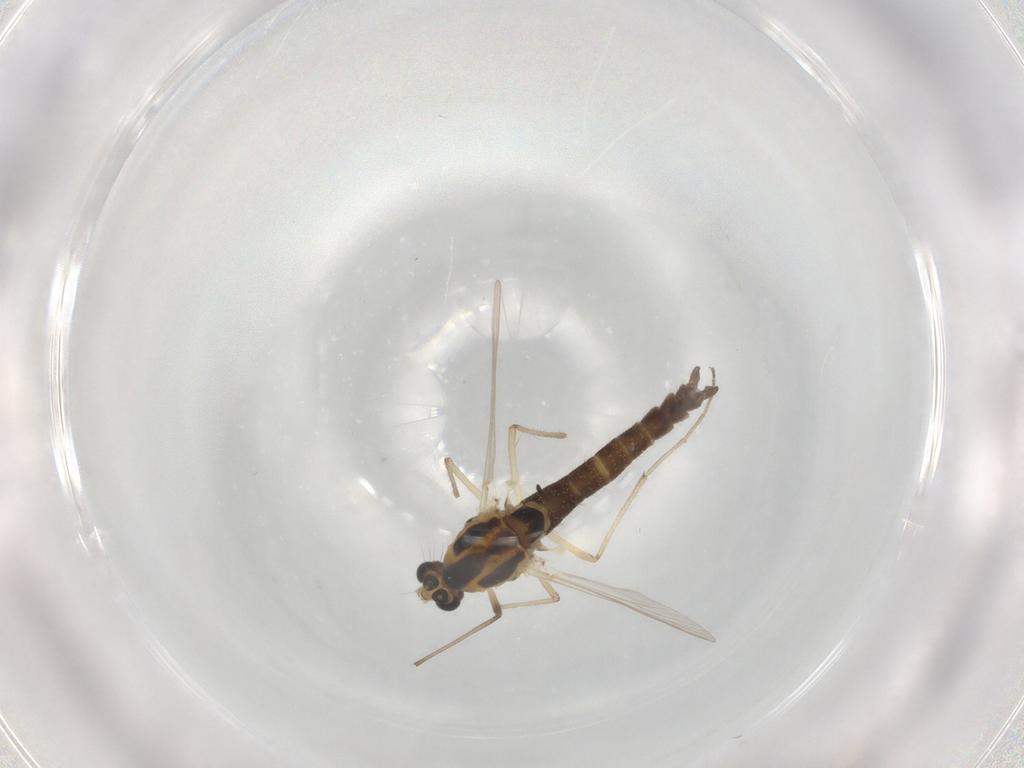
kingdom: Animalia
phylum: Arthropoda
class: Insecta
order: Diptera
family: Chironomidae
